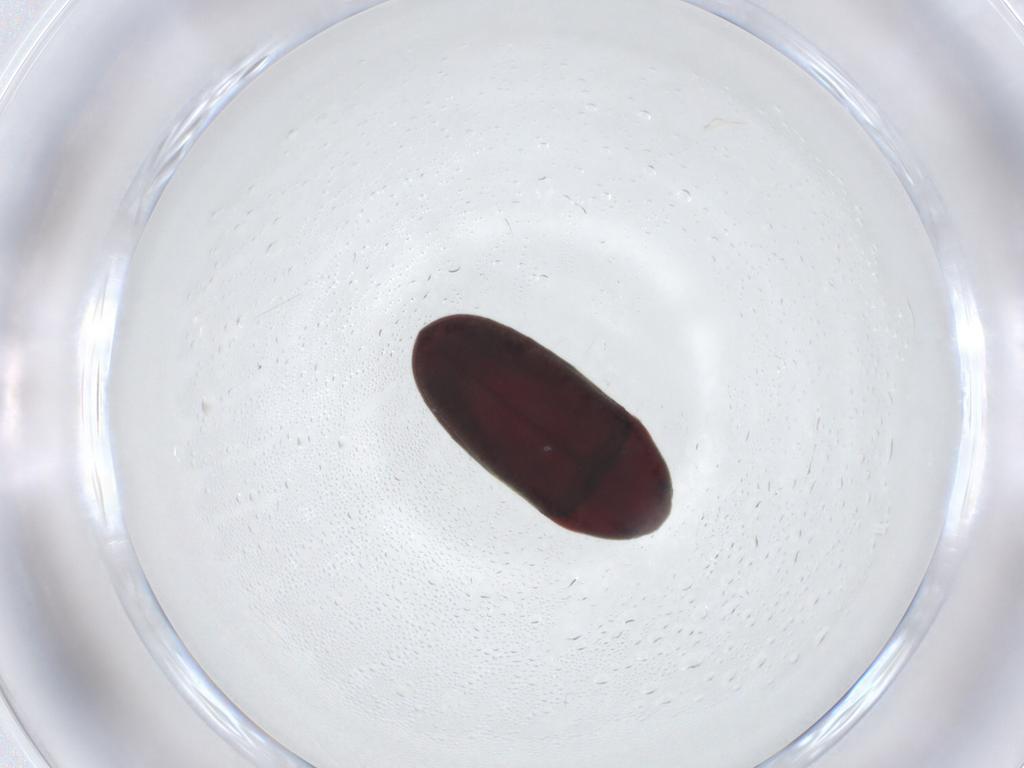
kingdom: Animalia
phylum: Arthropoda
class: Insecta
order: Coleoptera
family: Throscidae
